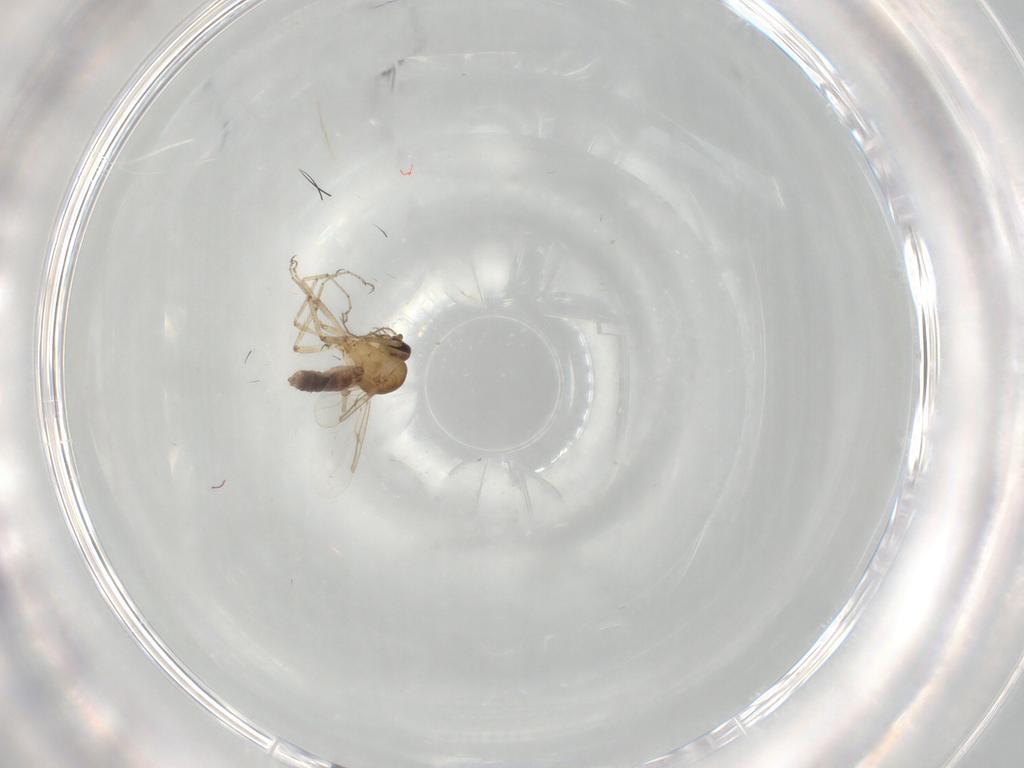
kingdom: Animalia
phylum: Arthropoda
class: Insecta
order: Diptera
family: Ceratopogonidae
